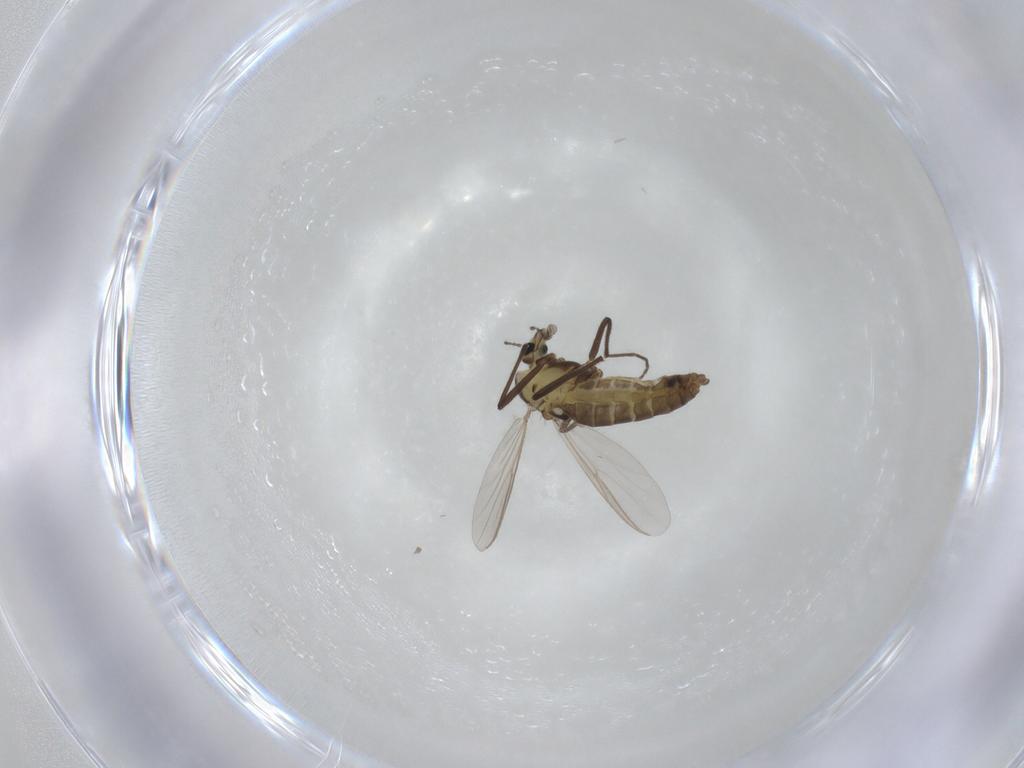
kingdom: Animalia
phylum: Arthropoda
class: Insecta
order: Diptera
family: Chironomidae
